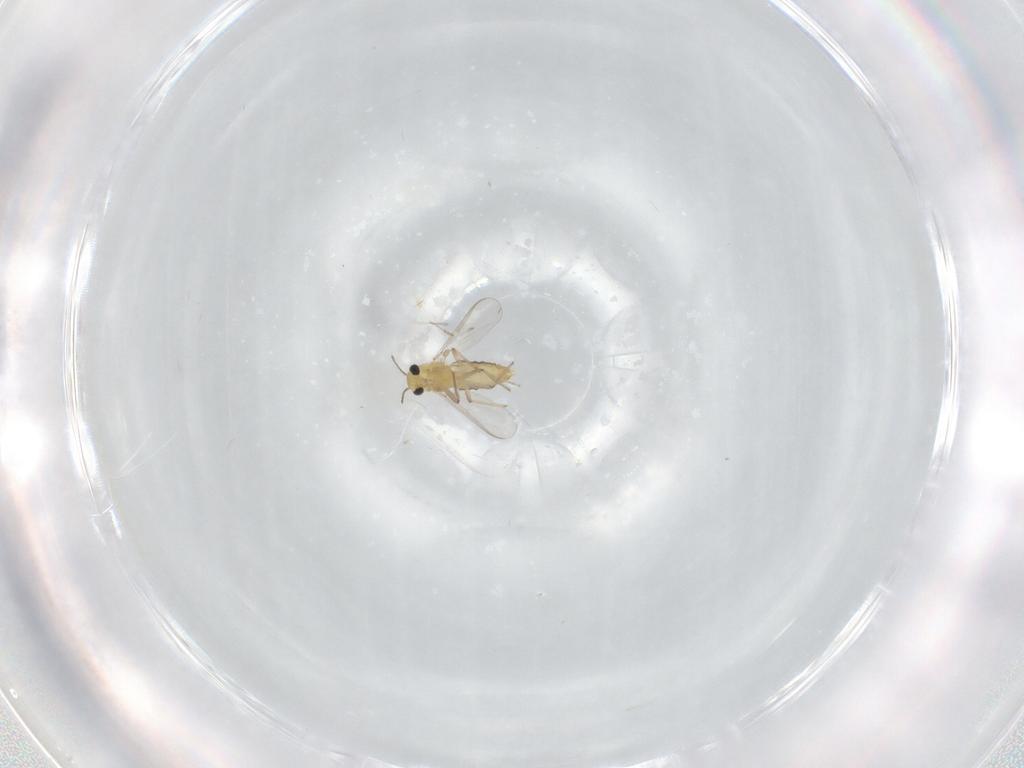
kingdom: Animalia
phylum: Arthropoda
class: Insecta
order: Diptera
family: Chironomidae
